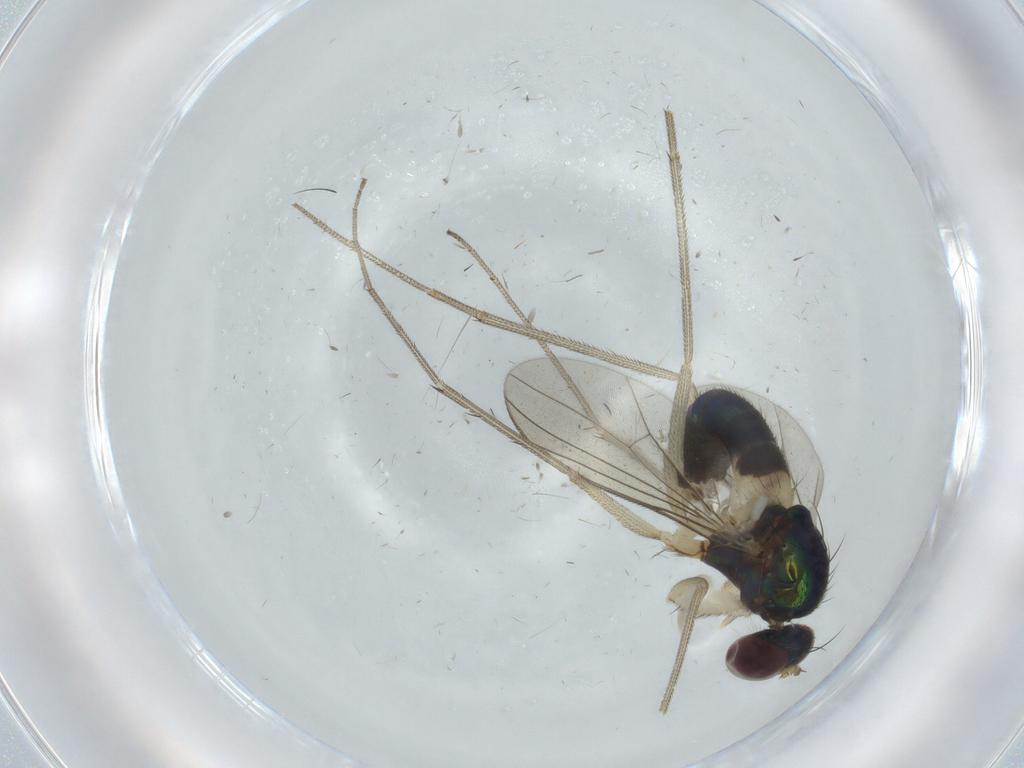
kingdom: Animalia
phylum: Arthropoda
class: Insecta
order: Diptera
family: Dolichopodidae
